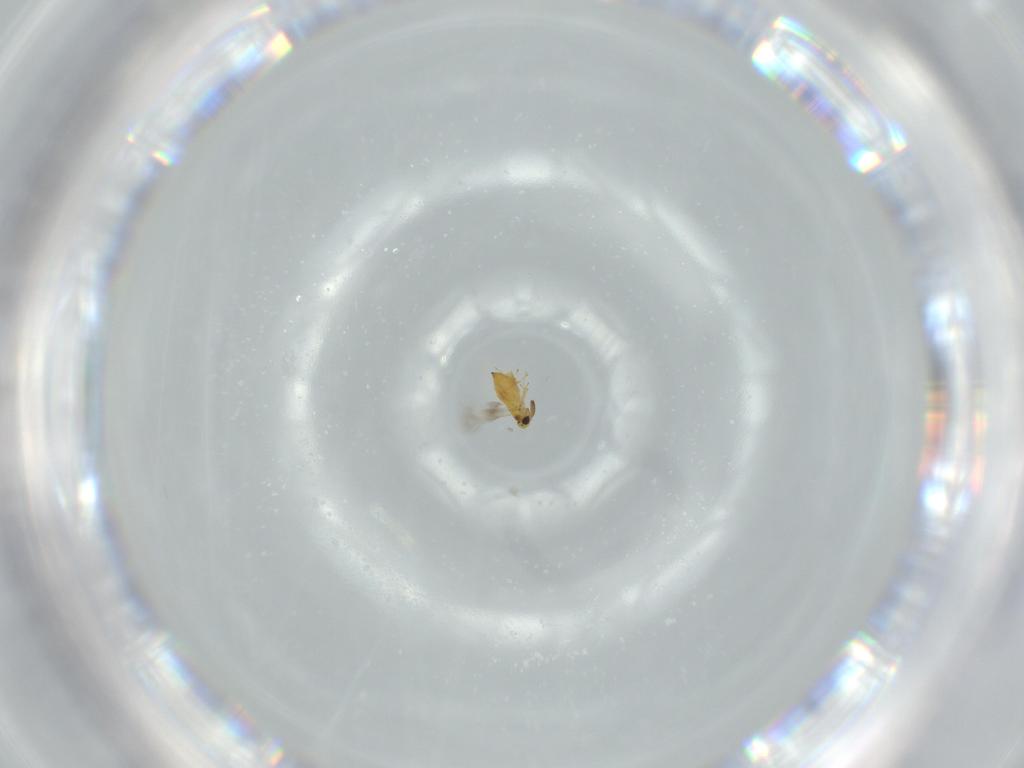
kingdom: Animalia
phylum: Arthropoda
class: Insecta
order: Hymenoptera
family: Signiphoridae
